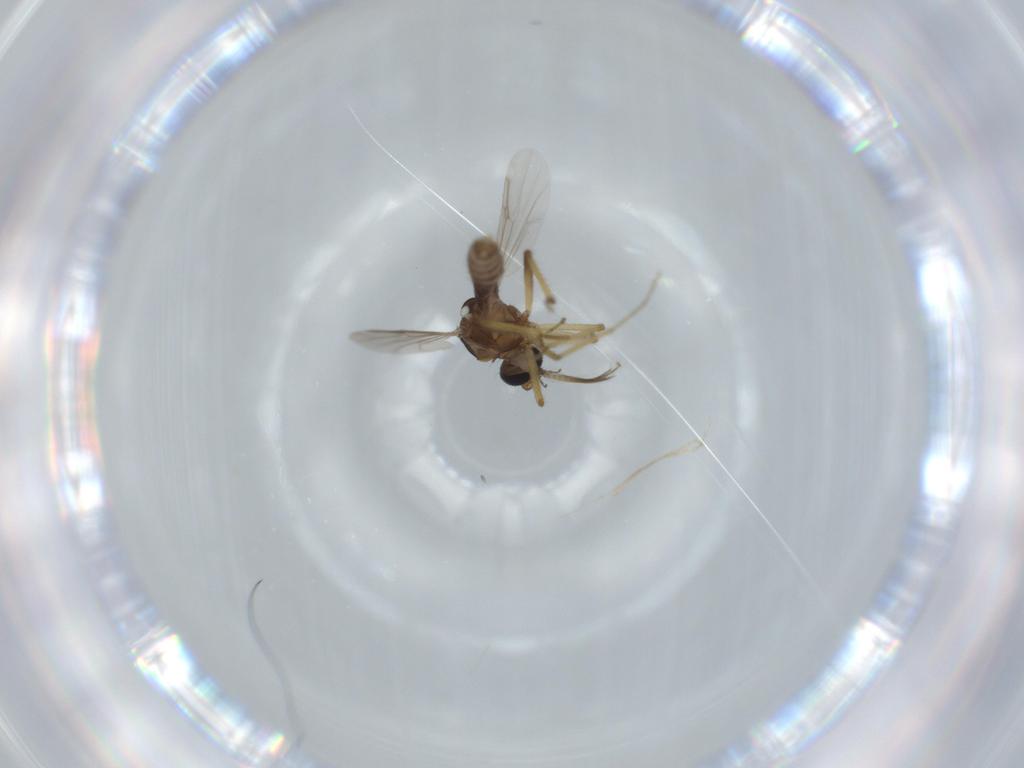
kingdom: Animalia
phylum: Arthropoda
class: Insecta
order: Diptera
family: Ceratopogonidae
